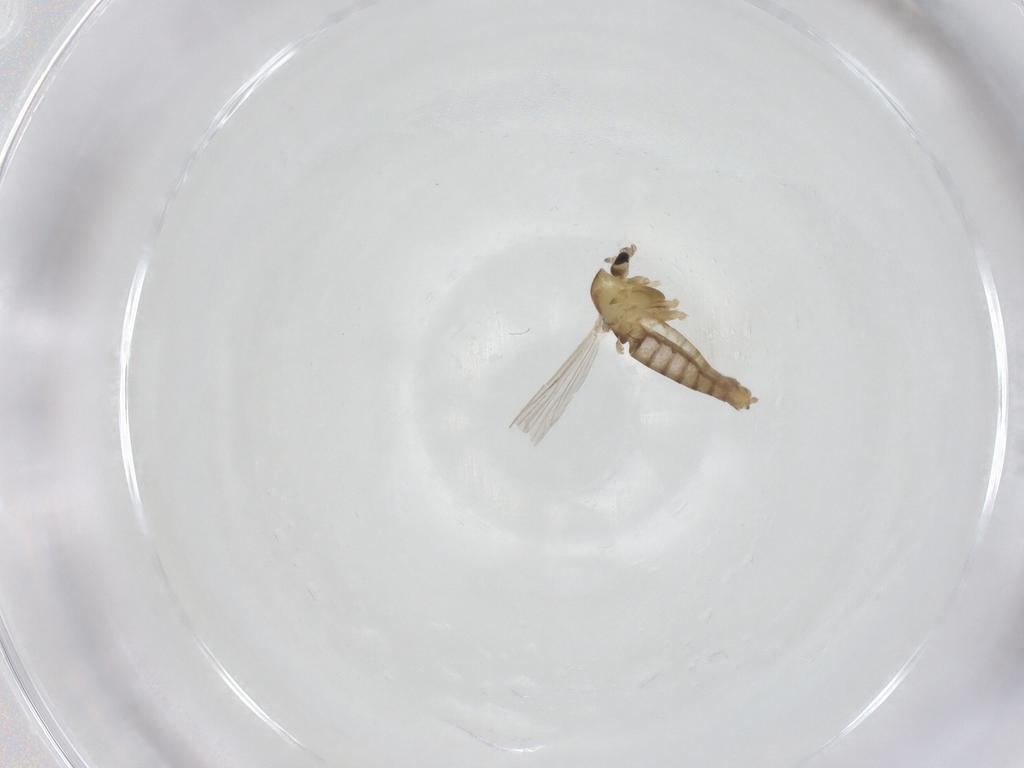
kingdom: Animalia
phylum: Arthropoda
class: Insecta
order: Diptera
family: Chironomidae
